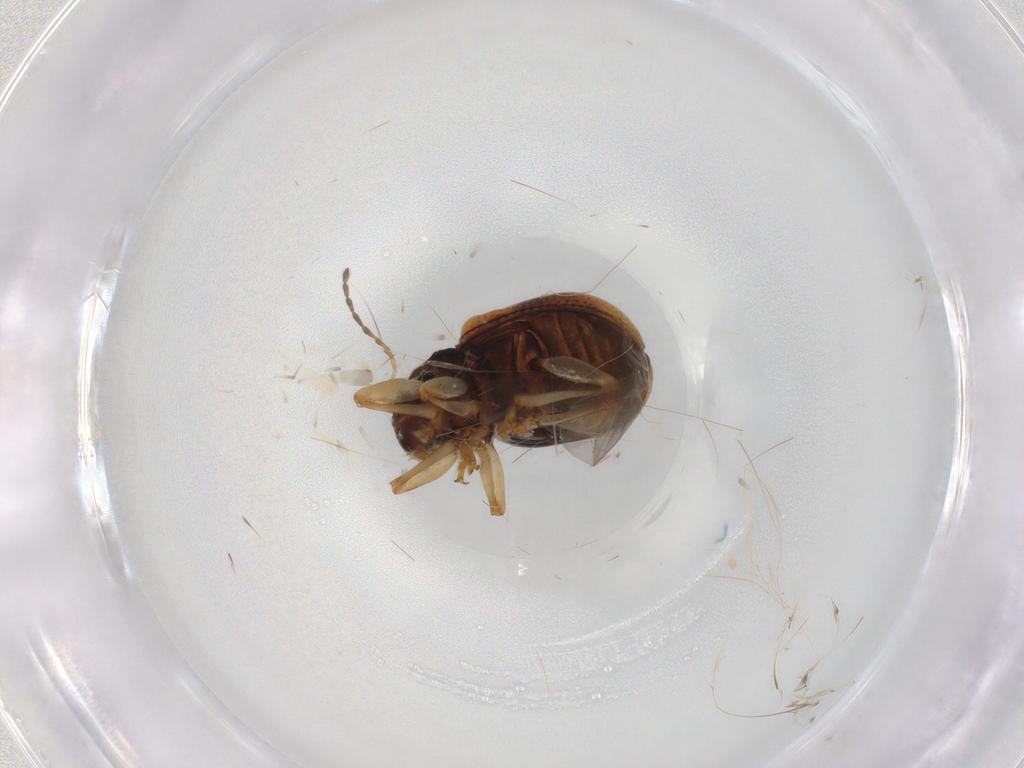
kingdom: Animalia
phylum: Arthropoda
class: Insecta
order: Coleoptera
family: Chrysomelidae
